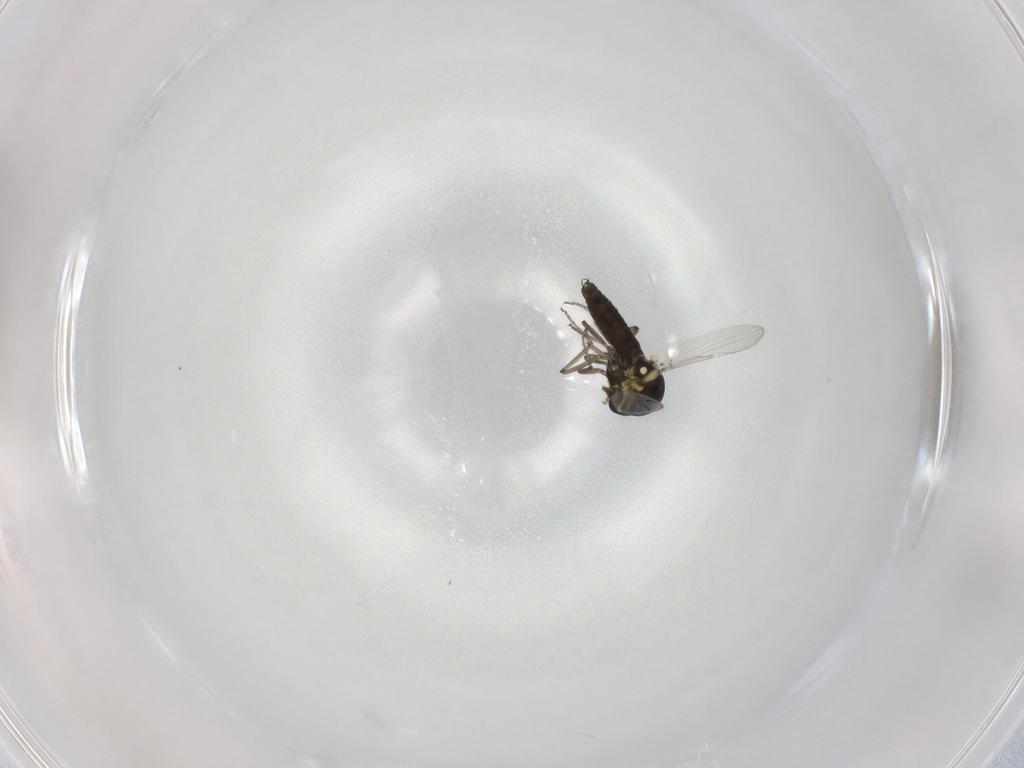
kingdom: Animalia
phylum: Arthropoda
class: Insecta
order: Diptera
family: Ceratopogonidae
